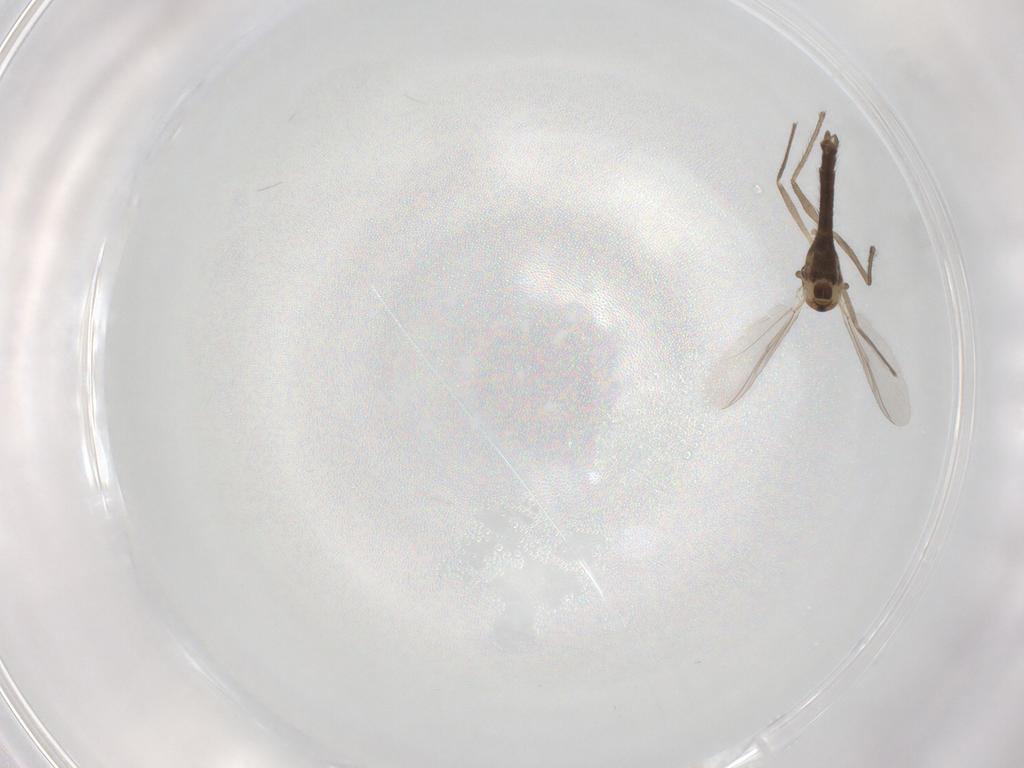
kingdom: Animalia
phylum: Arthropoda
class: Insecta
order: Diptera
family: Chironomidae
